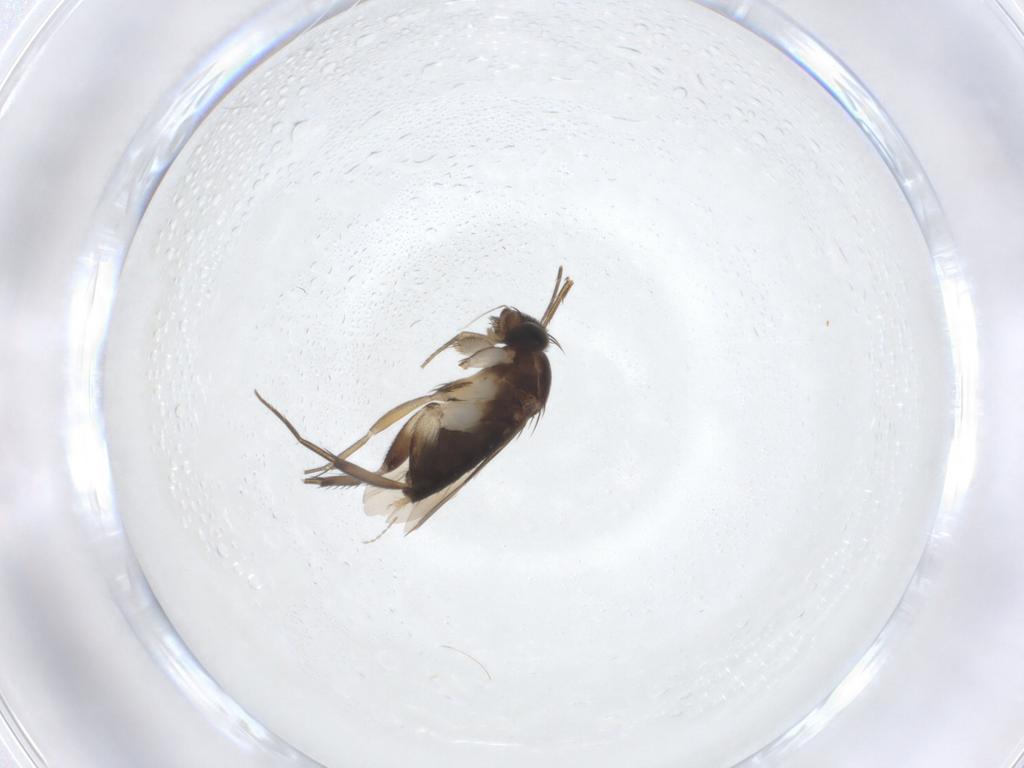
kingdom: Animalia
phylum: Arthropoda
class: Insecta
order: Diptera
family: Phoridae
